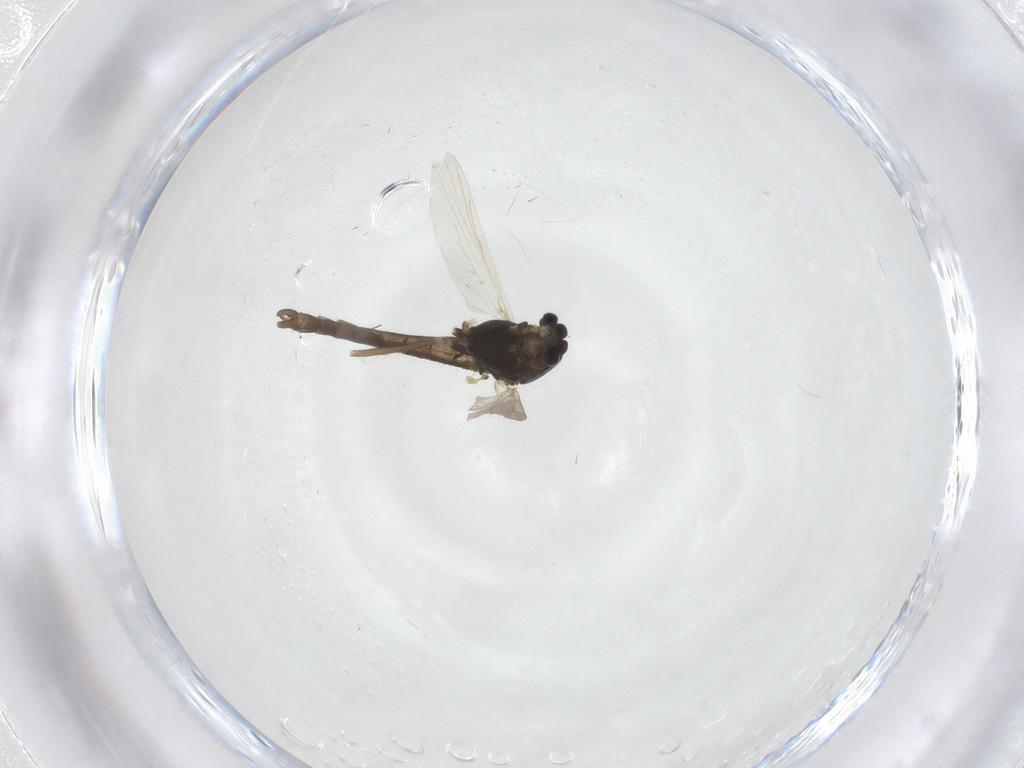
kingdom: Animalia
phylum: Arthropoda
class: Insecta
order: Diptera
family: Chironomidae
